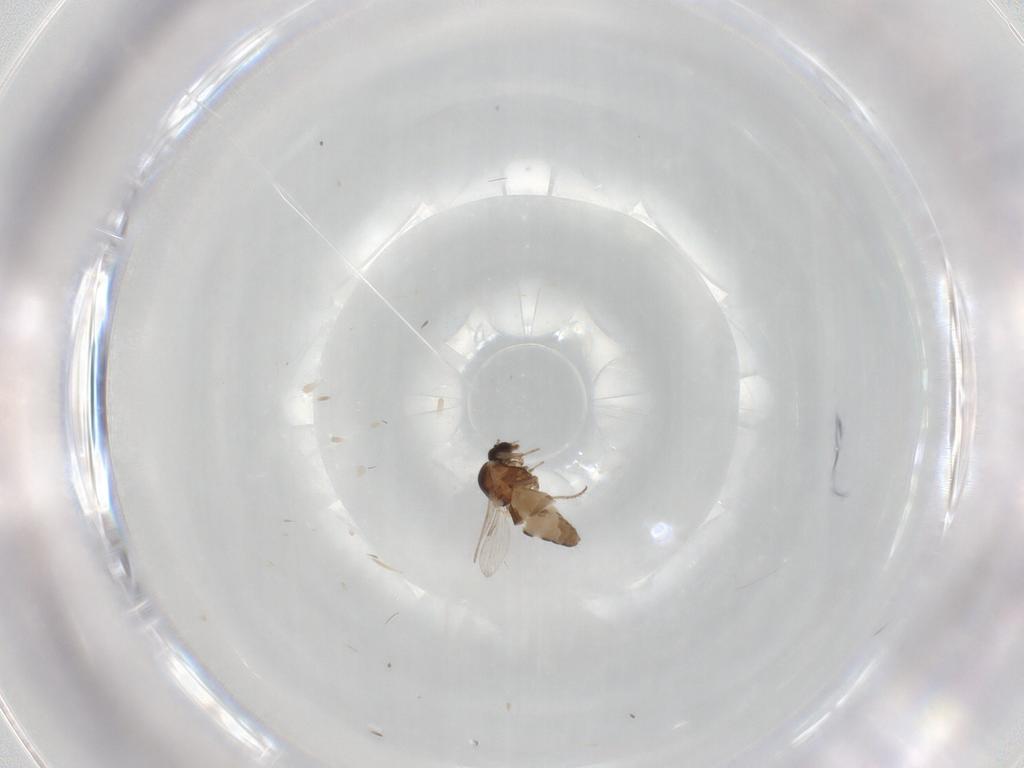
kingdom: Animalia
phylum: Arthropoda
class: Insecta
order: Diptera
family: Ceratopogonidae
